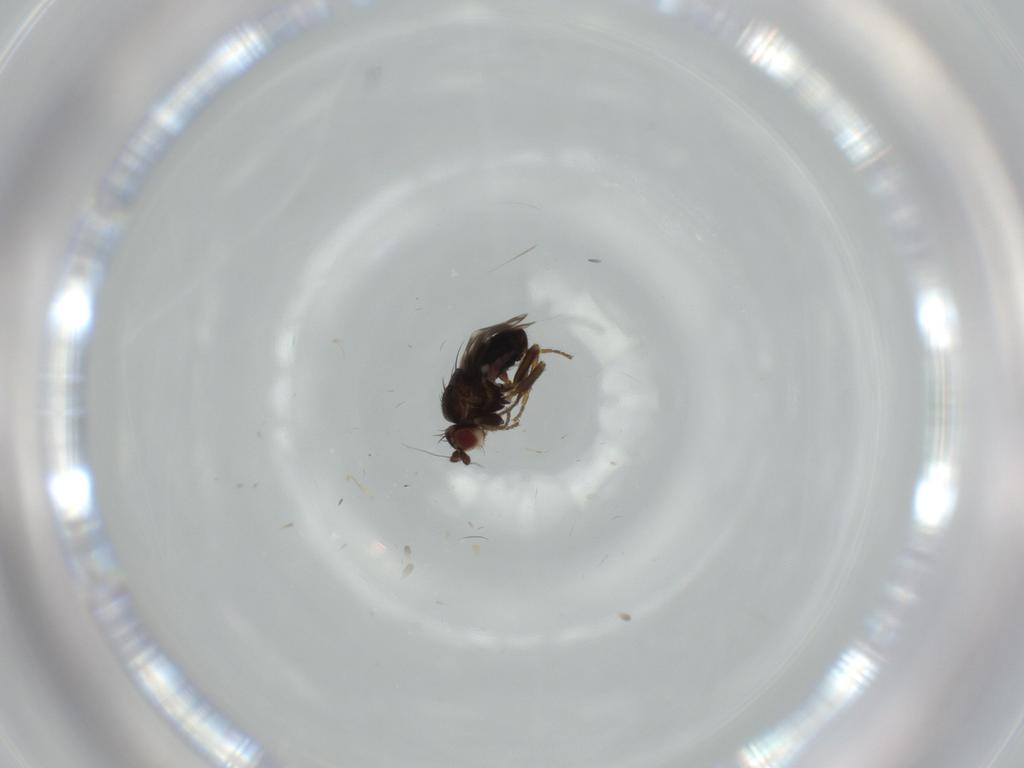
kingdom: Animalia
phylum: Arthropoda
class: Insecta
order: Diptera
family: Sphaeroceridae
